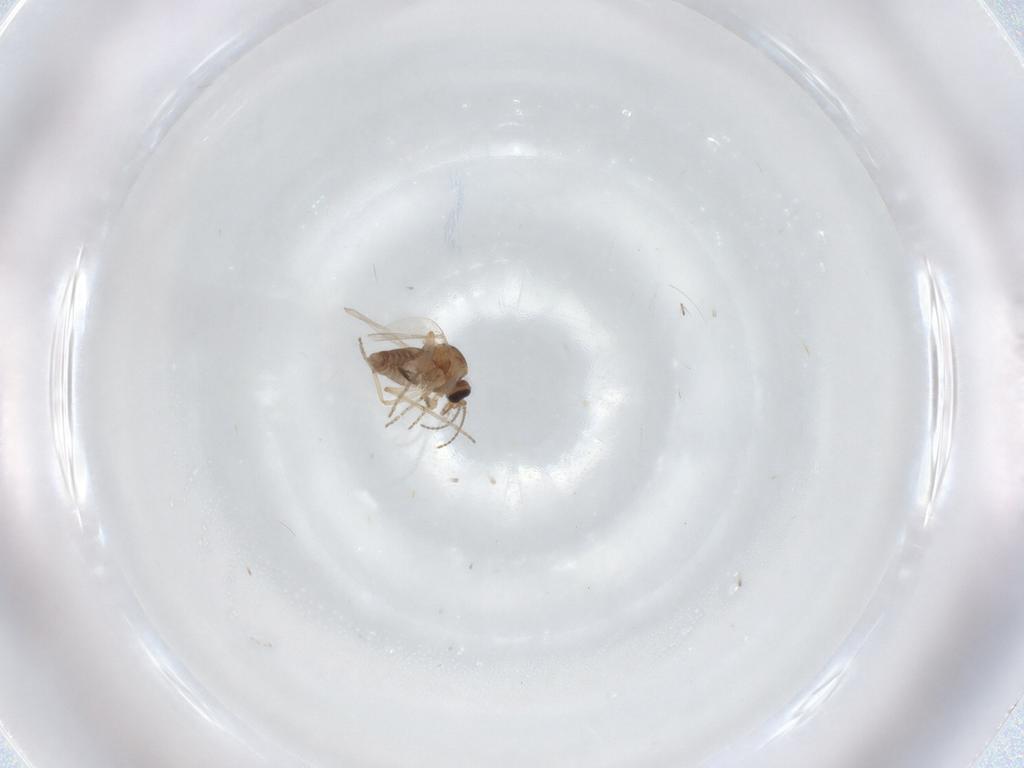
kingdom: Animalia
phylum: Arthropoda
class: Insecta
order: Diptera
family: Ceratopogonidae
